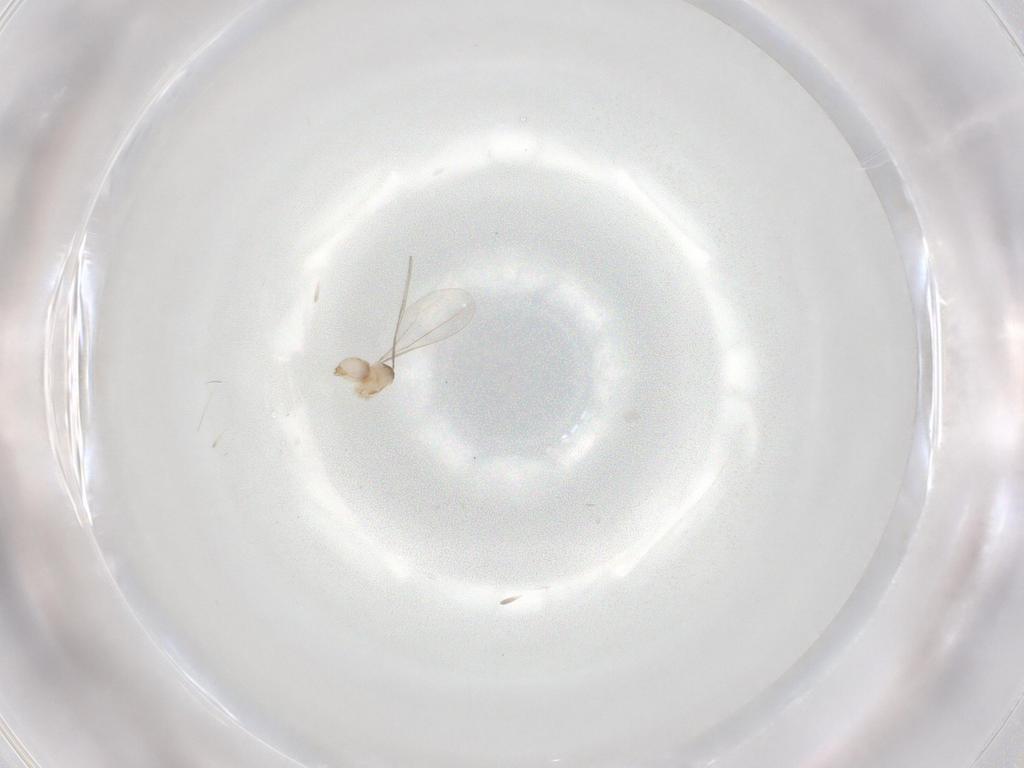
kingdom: Animalia
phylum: Arthropoda
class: Insecta
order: Diptera
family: Cecidomyiidae
